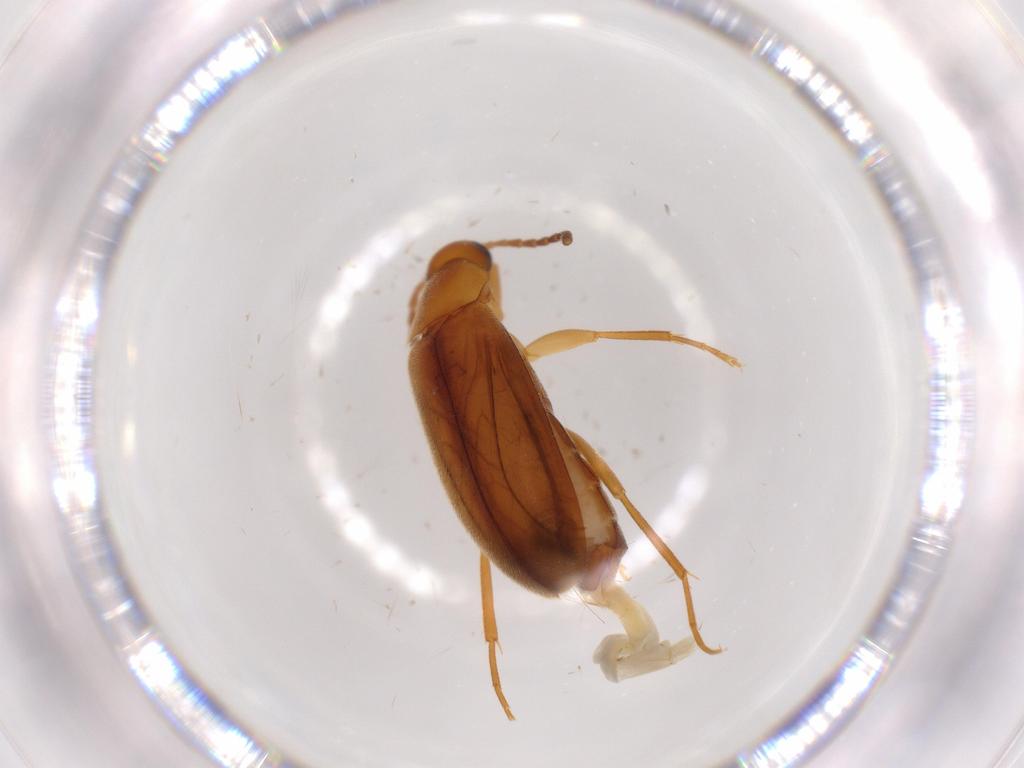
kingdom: Animalia
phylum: Arthropoda
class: Insecta
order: Coleoptera
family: Scraptiidae
